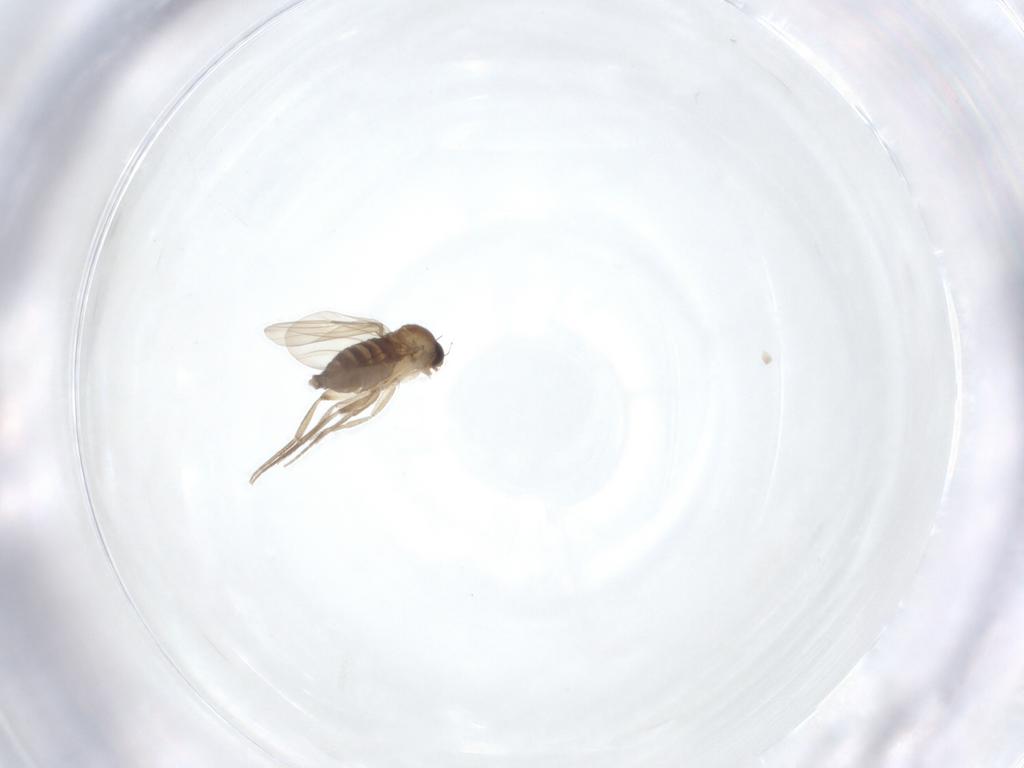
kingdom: Animalia
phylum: Arthropoda
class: Insecta
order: Diptera
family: Phoridae
